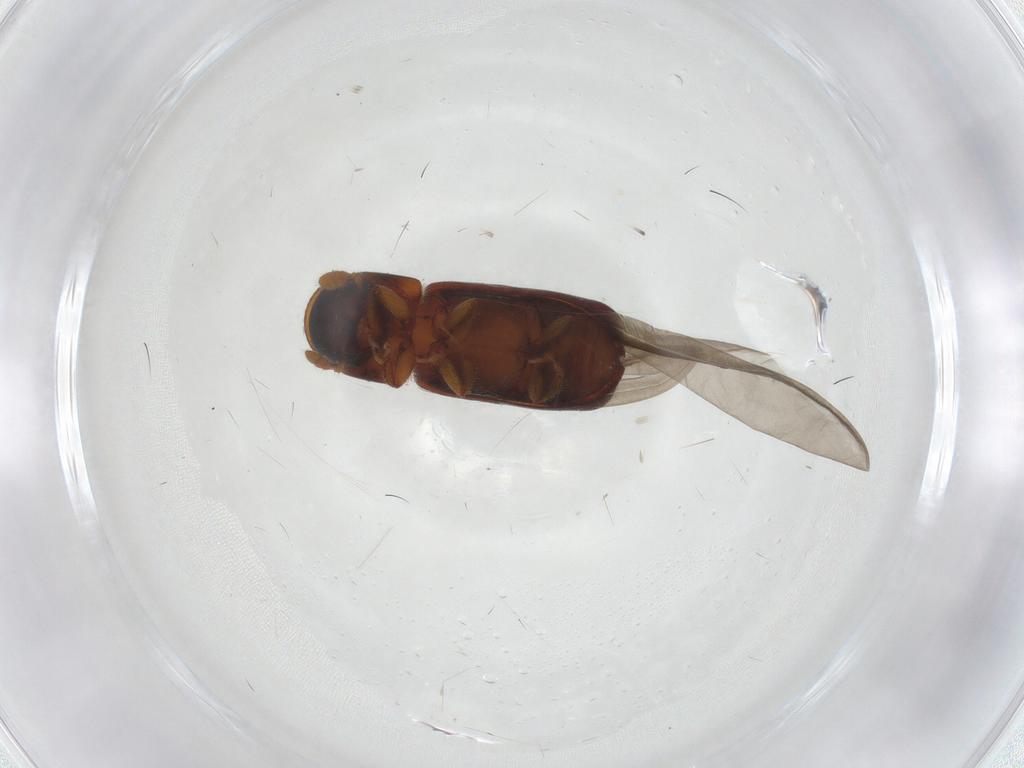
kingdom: Animalia
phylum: Arthropoda
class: Insecta
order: Coleoptera
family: Curculionidae
